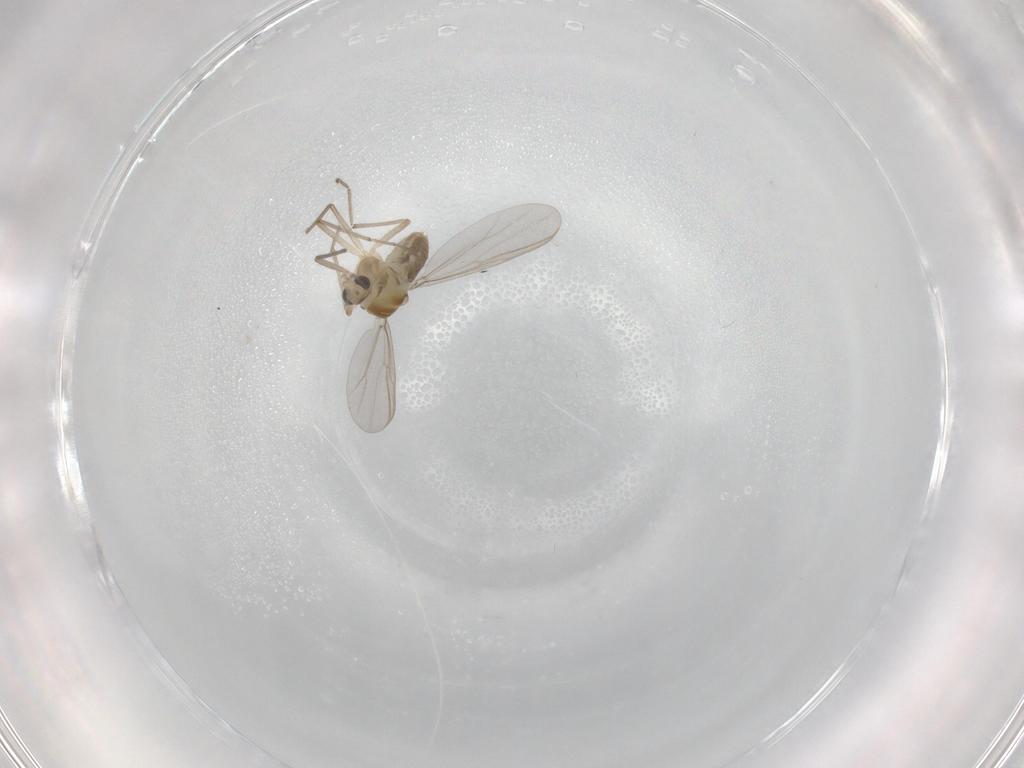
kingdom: Animalia
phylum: Arthropoda
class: Insecta
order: Diptera
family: Chironomidae
